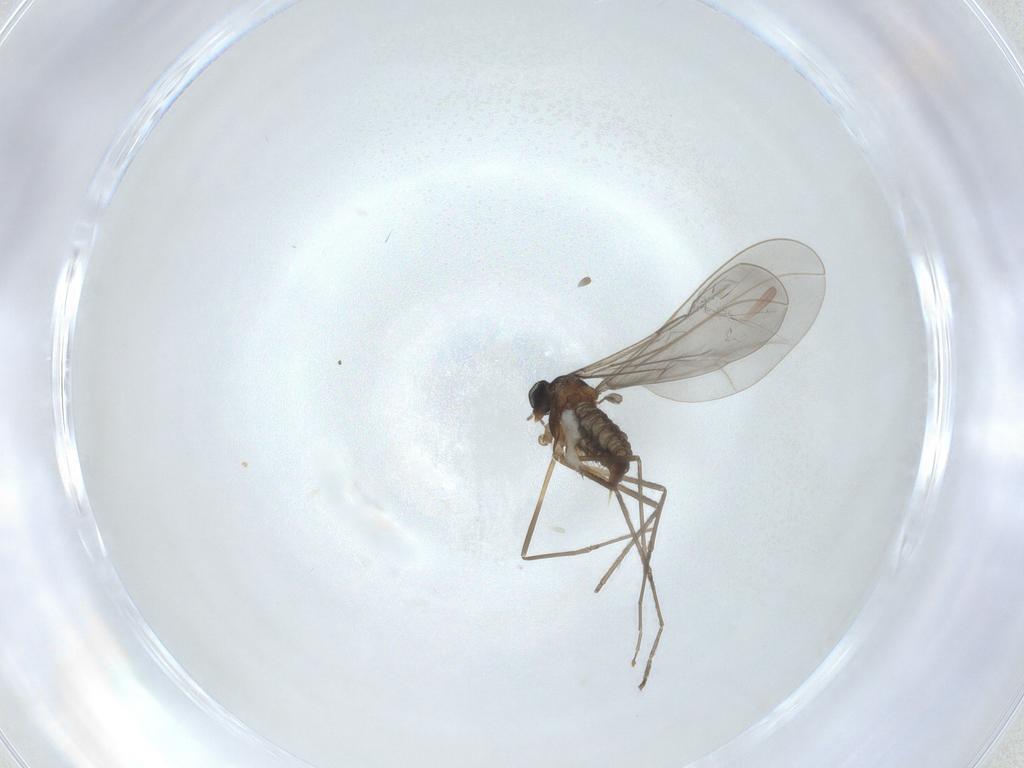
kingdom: Animalia
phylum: Arthropoda
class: Insecta
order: Diptera
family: Cecidomyiidae
